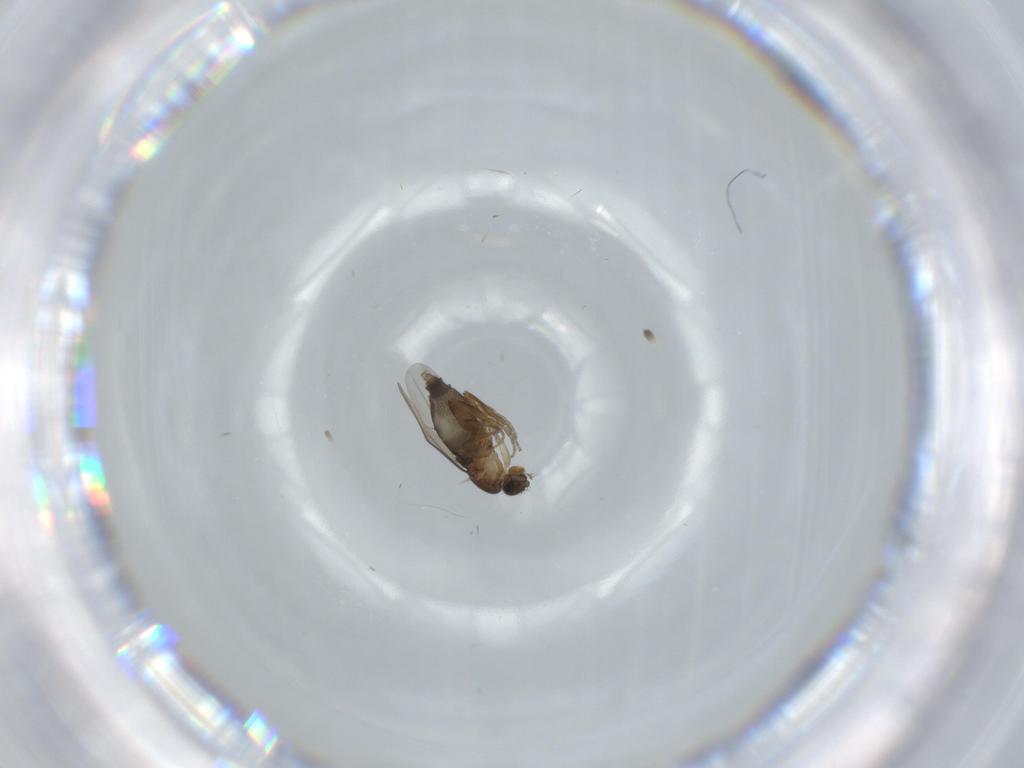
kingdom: Animalia
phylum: Arthropoda
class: Insecta
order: Diptera
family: Phoridae
